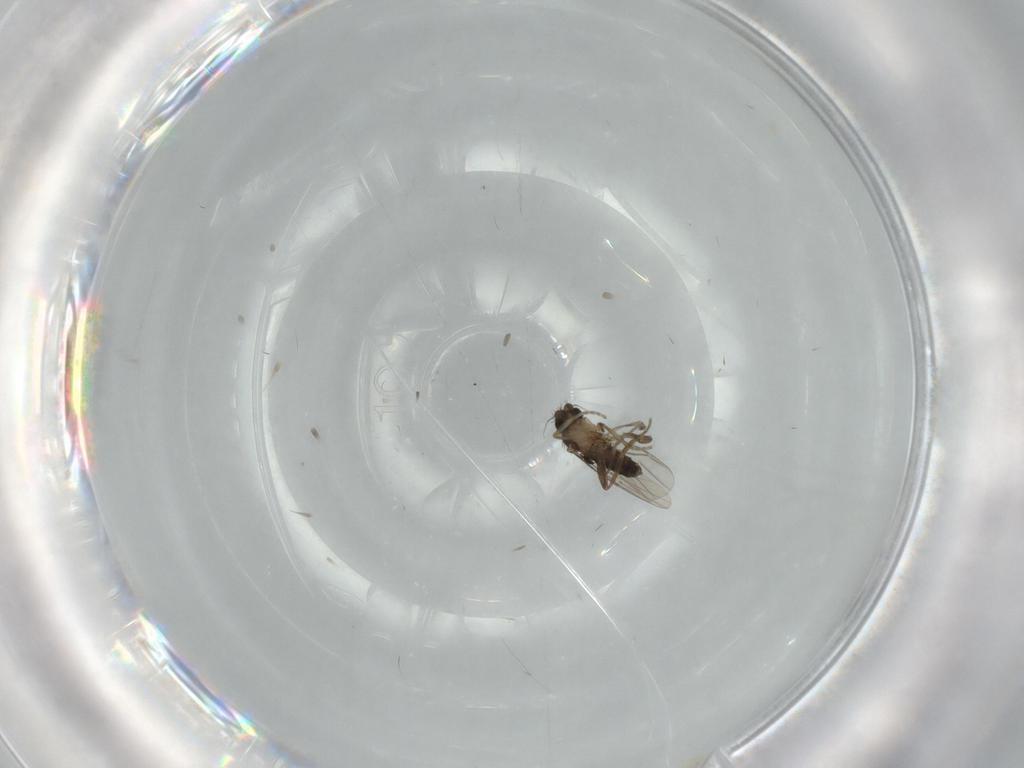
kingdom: Animalia
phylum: Arthropoda
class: Insecta
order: Diptera
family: Phoridae
